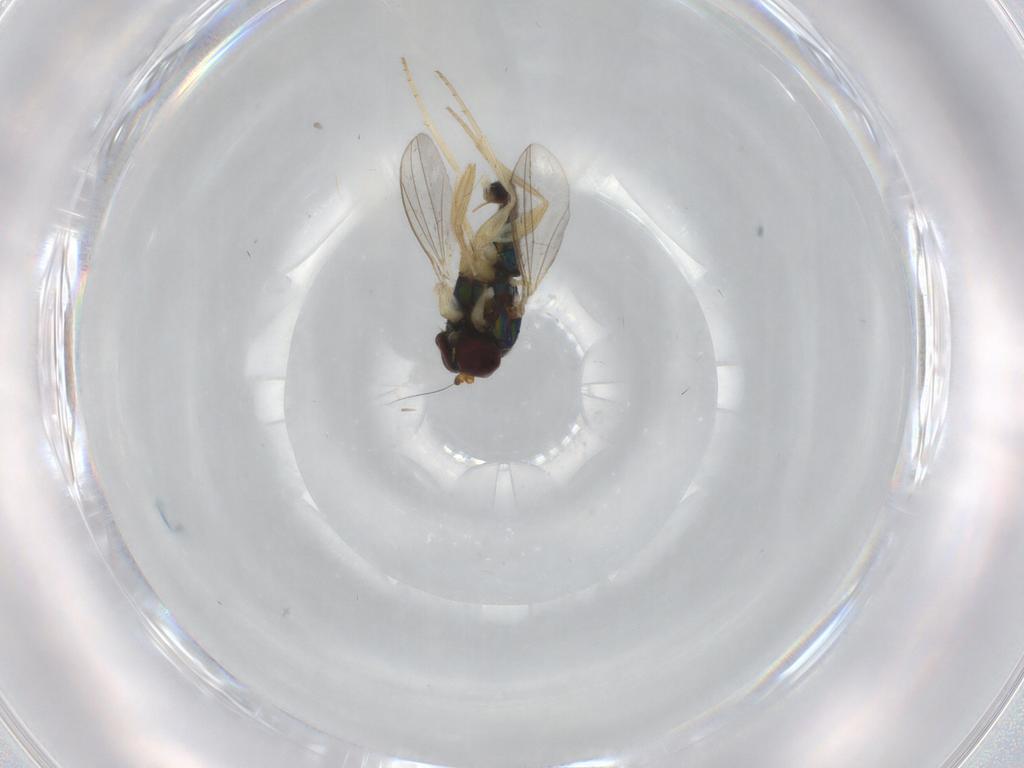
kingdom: Animalia
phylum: Arthropoda
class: Insecta
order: Diptera
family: Dolichopodidae
